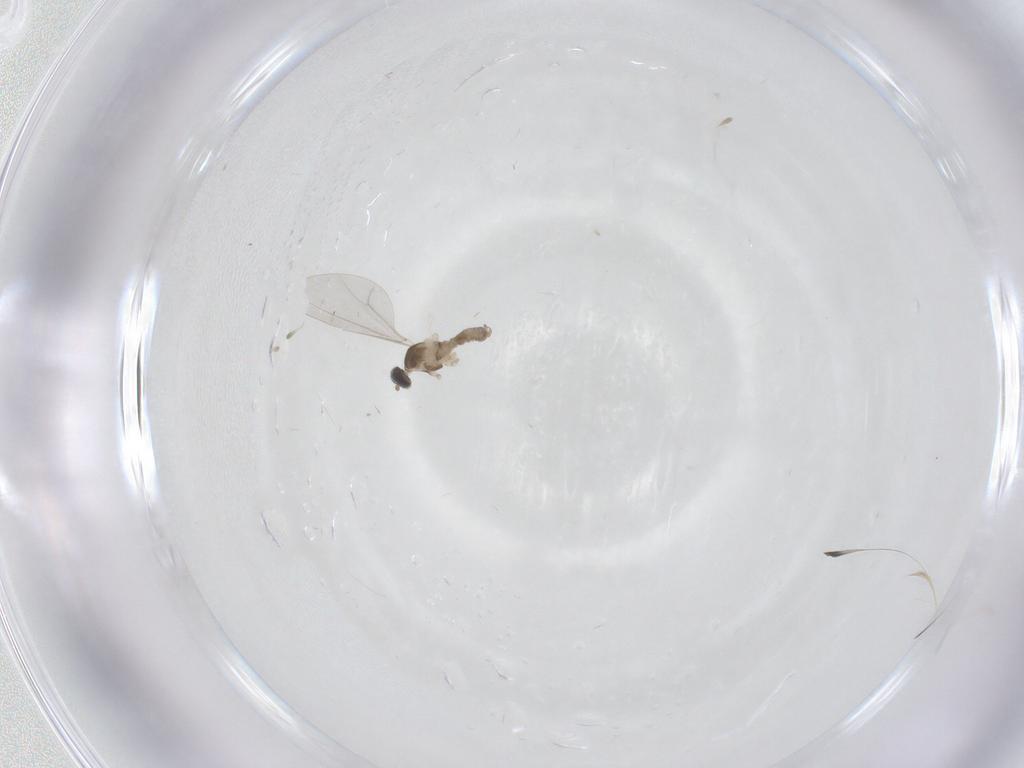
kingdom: Animalia
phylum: Arthropoda
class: Insecta
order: Diptera
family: Cecidomyiidae
